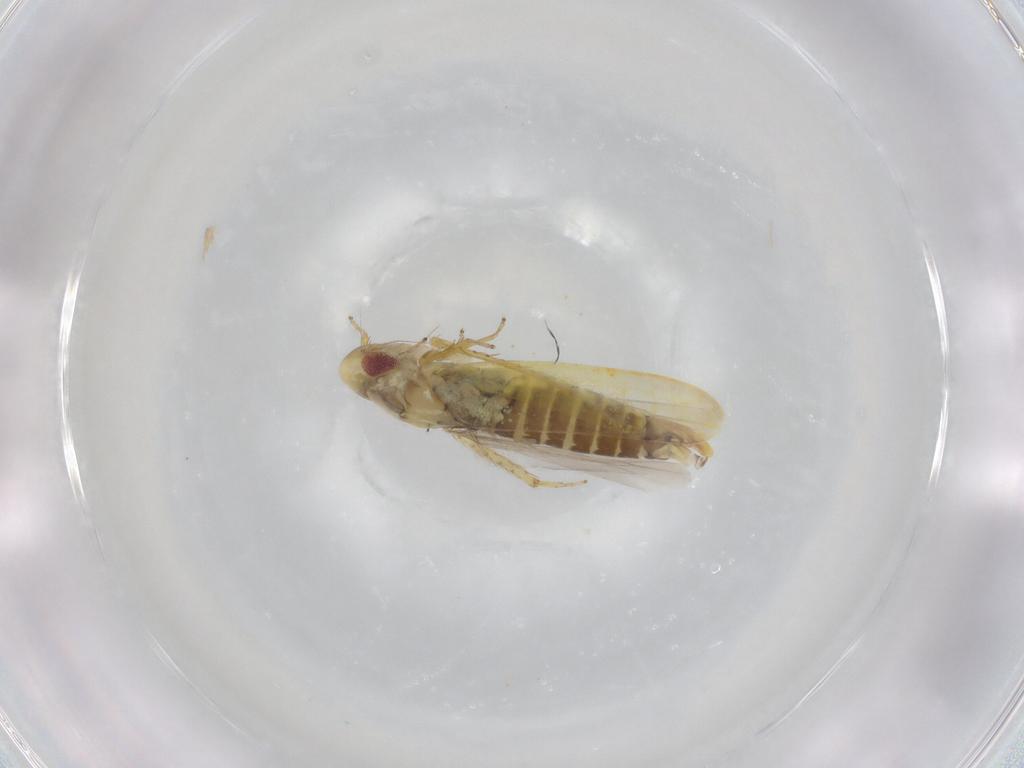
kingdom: Animalia
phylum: Arthropoda
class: Insecta
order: Hemiptera
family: Cicadellidae
